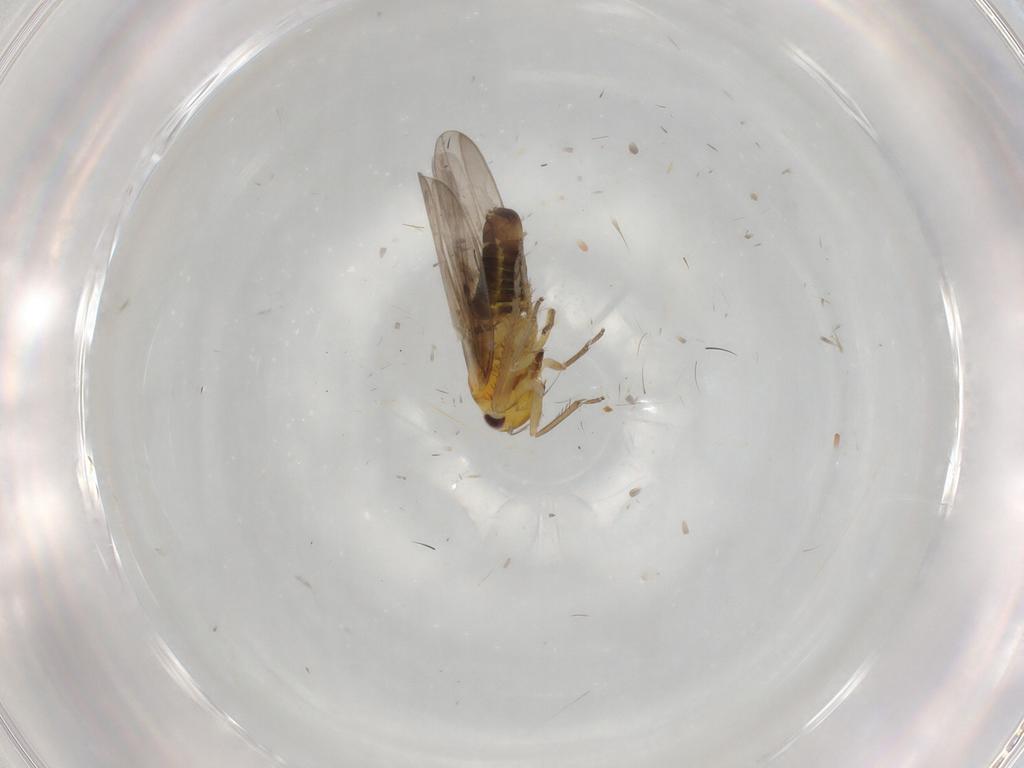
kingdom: Animalia
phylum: Arthropoda
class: Insecta
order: Hemiptera
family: Cicadellidae
